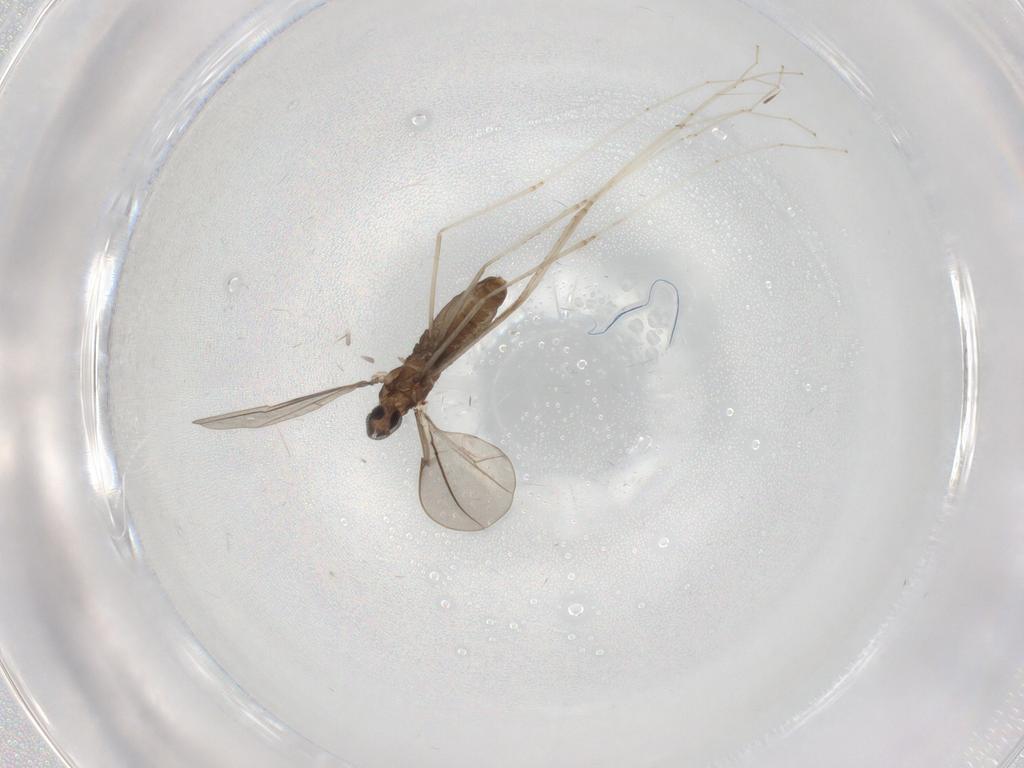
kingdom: Animalia
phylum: Arthropoda
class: Insecta
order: Diptera
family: Cecidomyiidae
